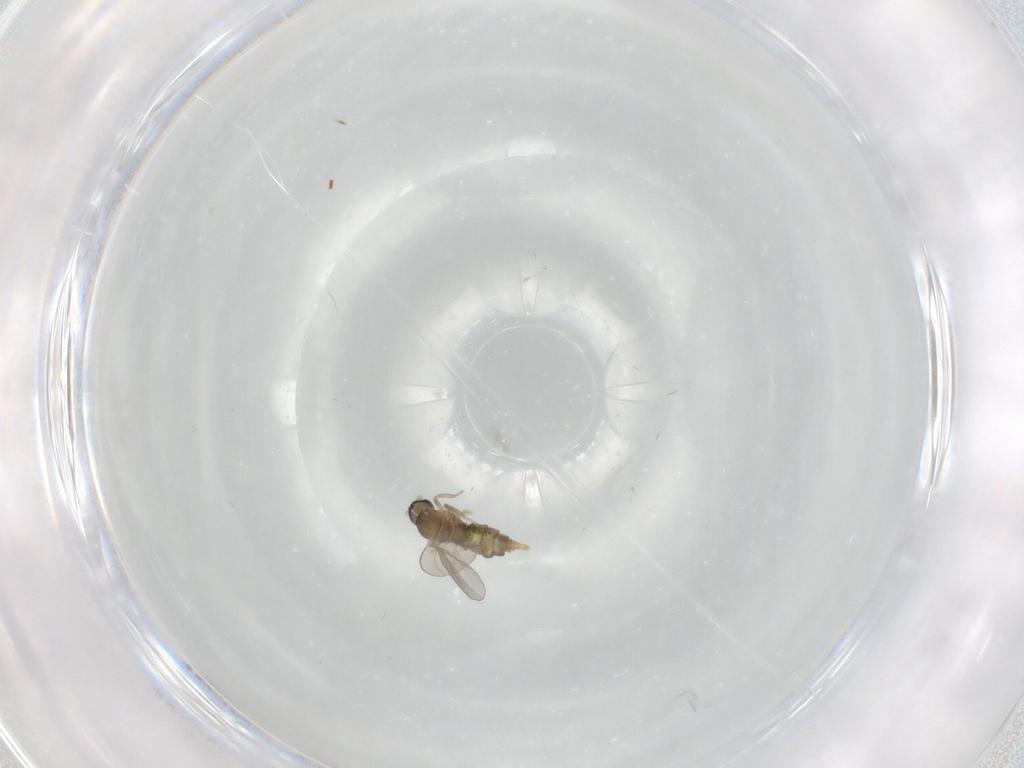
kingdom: Animalia
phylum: Arthropoda
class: Insecta
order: Diptera
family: Cecidomyiidae
